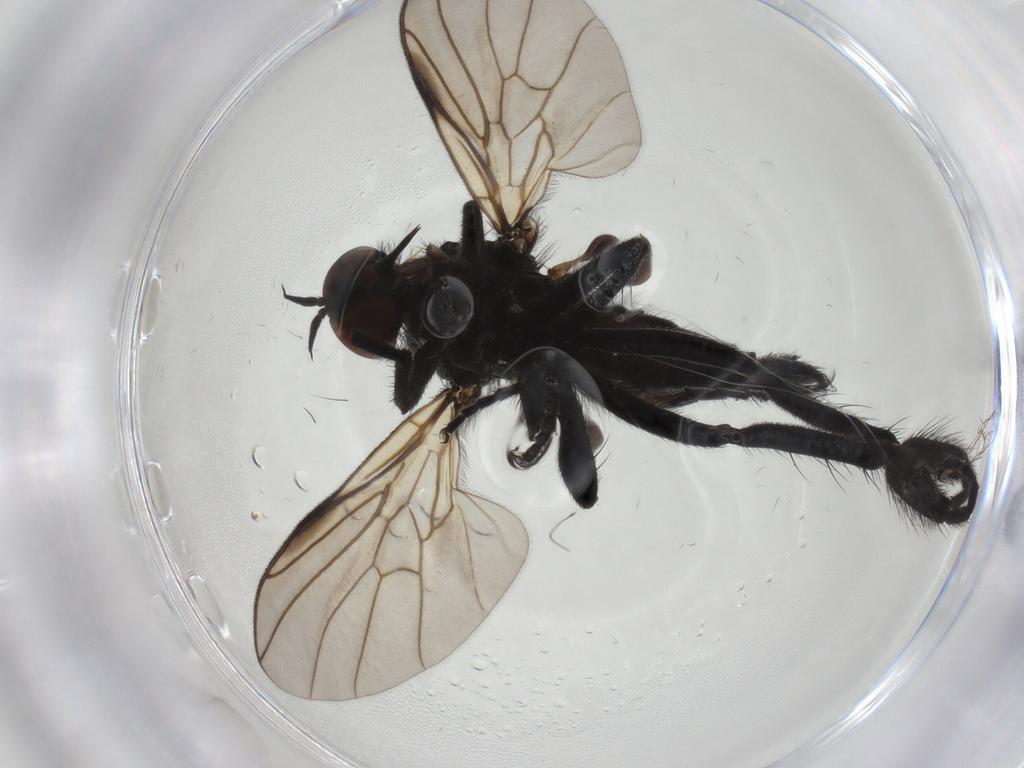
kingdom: Animalia
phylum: Arthropoda
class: Insecta
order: Diptera
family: Empididae
